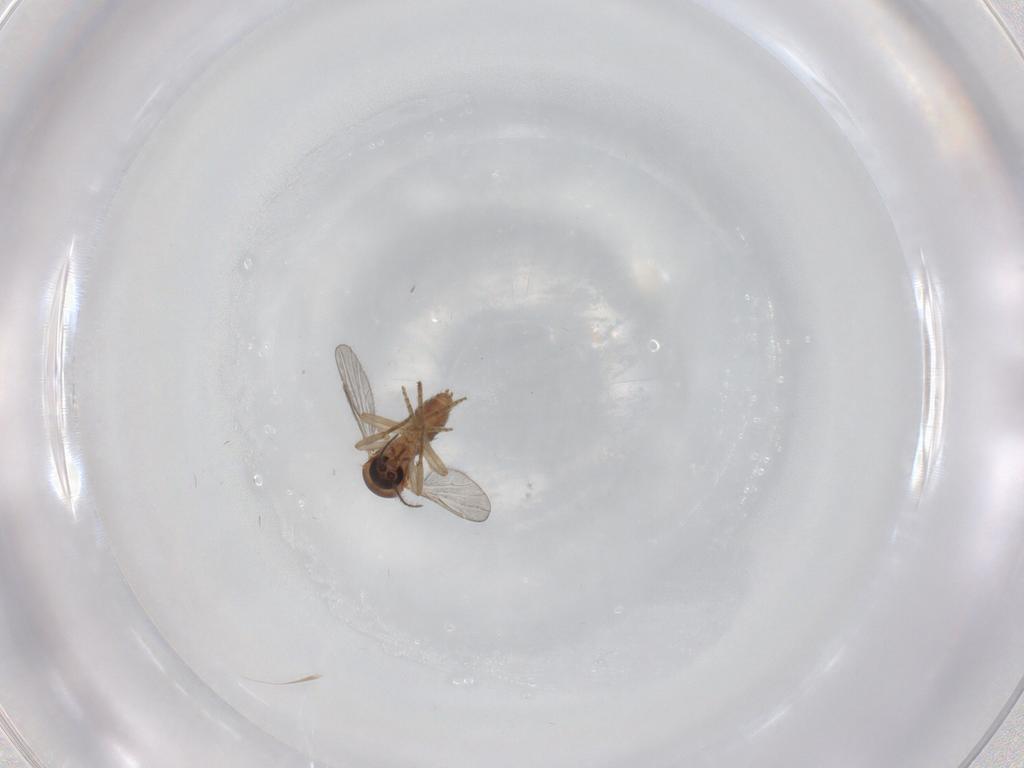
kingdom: Animalia
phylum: Arthropoda
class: Insecta
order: Diptera
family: Ceratopogonidae
